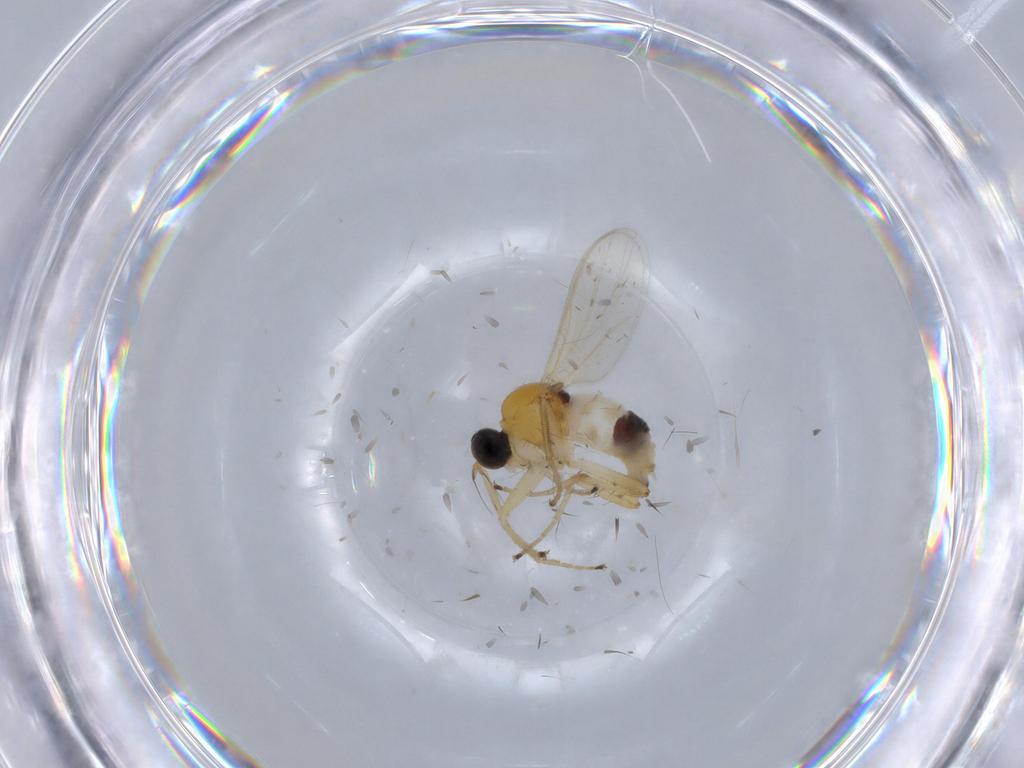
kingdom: Animalia
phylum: Arthropoda
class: Insecta
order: Diptera
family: Hybotidae
